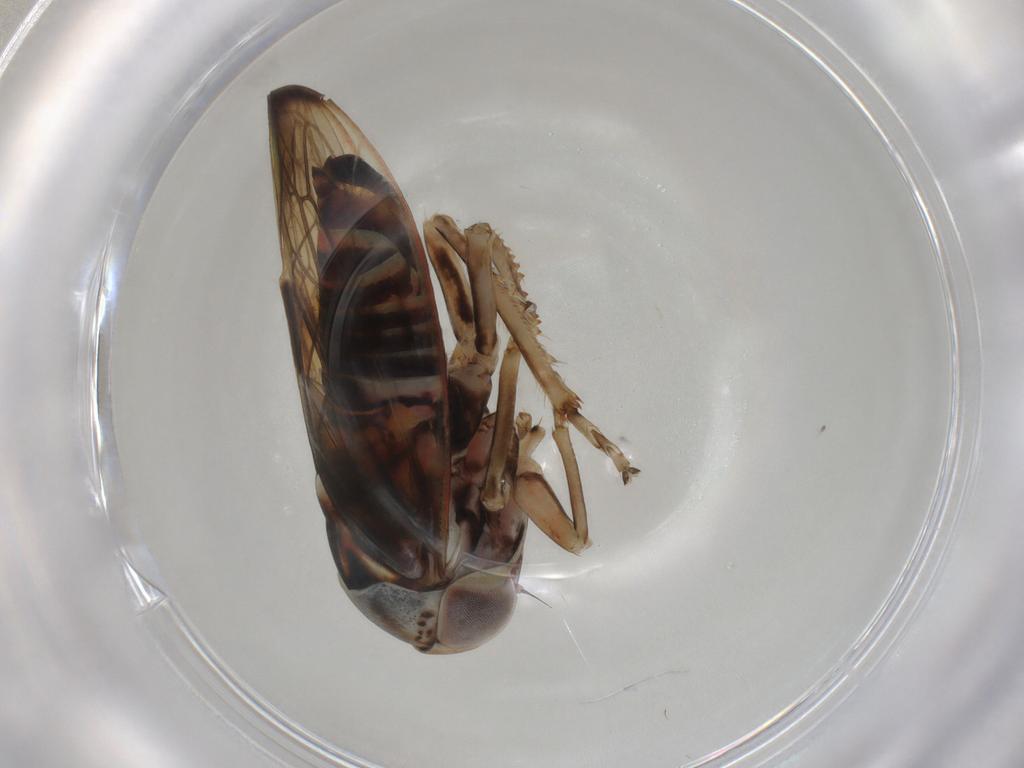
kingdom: Animalia
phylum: Arthropoda
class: Insecta
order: Hemiptera
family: Cicadellidae
